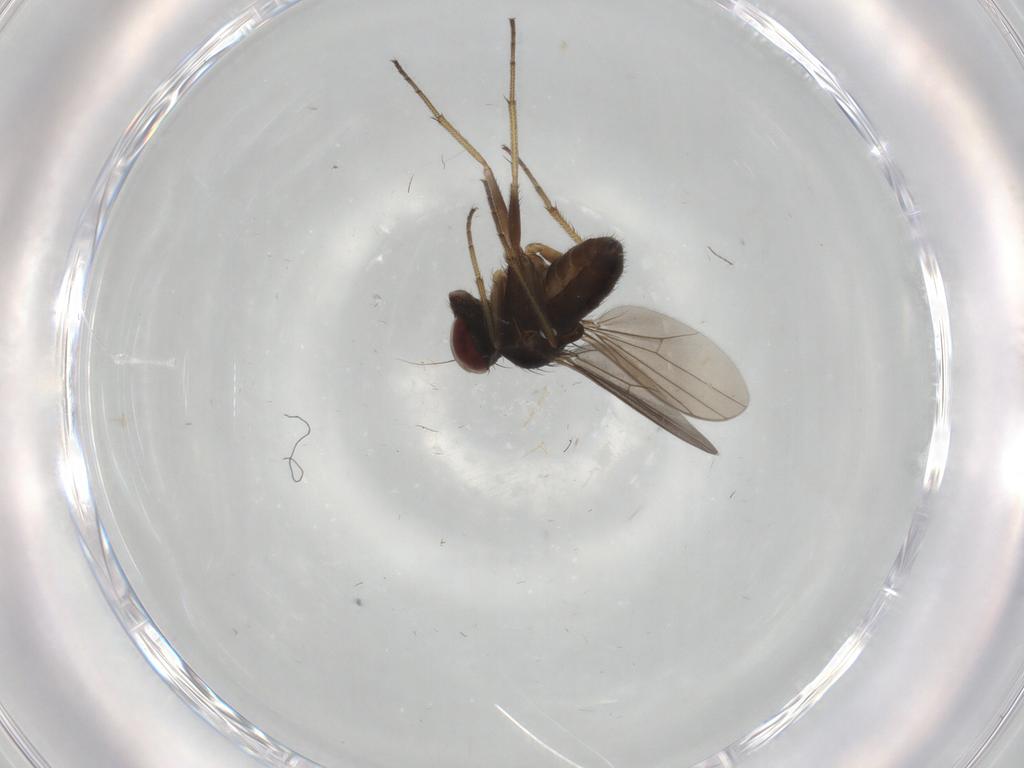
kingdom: Animalia
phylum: Arthropoda
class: Insecta
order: Diptera
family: Dolichopodidae
